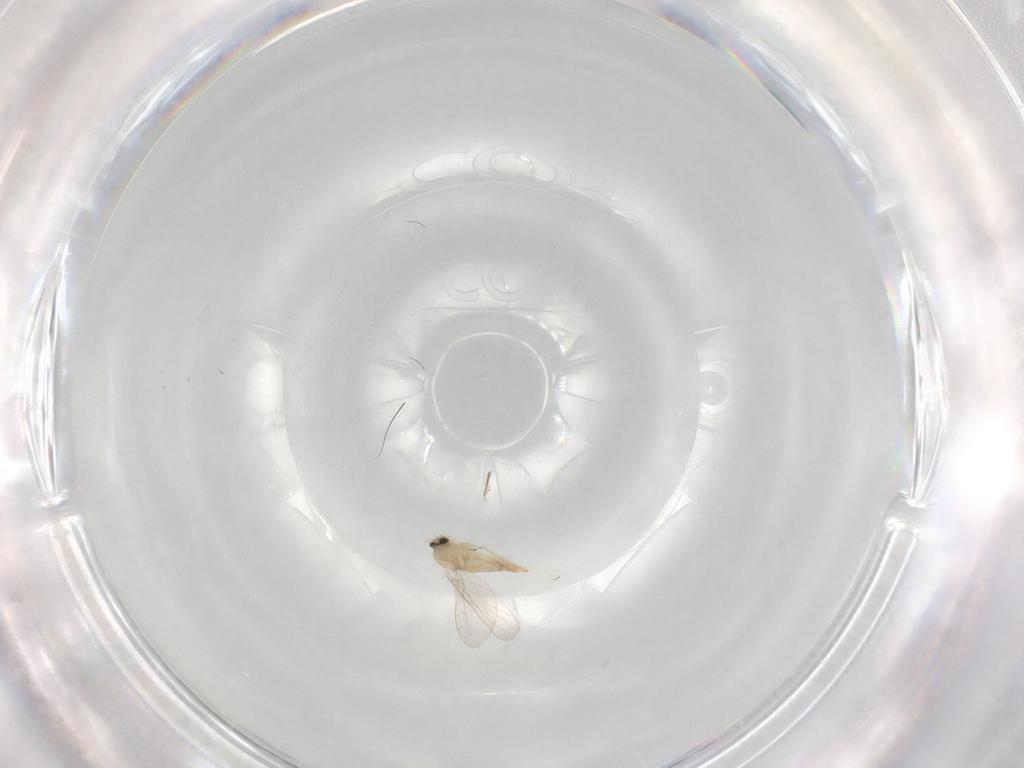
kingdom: Animalia
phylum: Arthropoda
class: Insecta
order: Diptera
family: Cecidomyiidae
